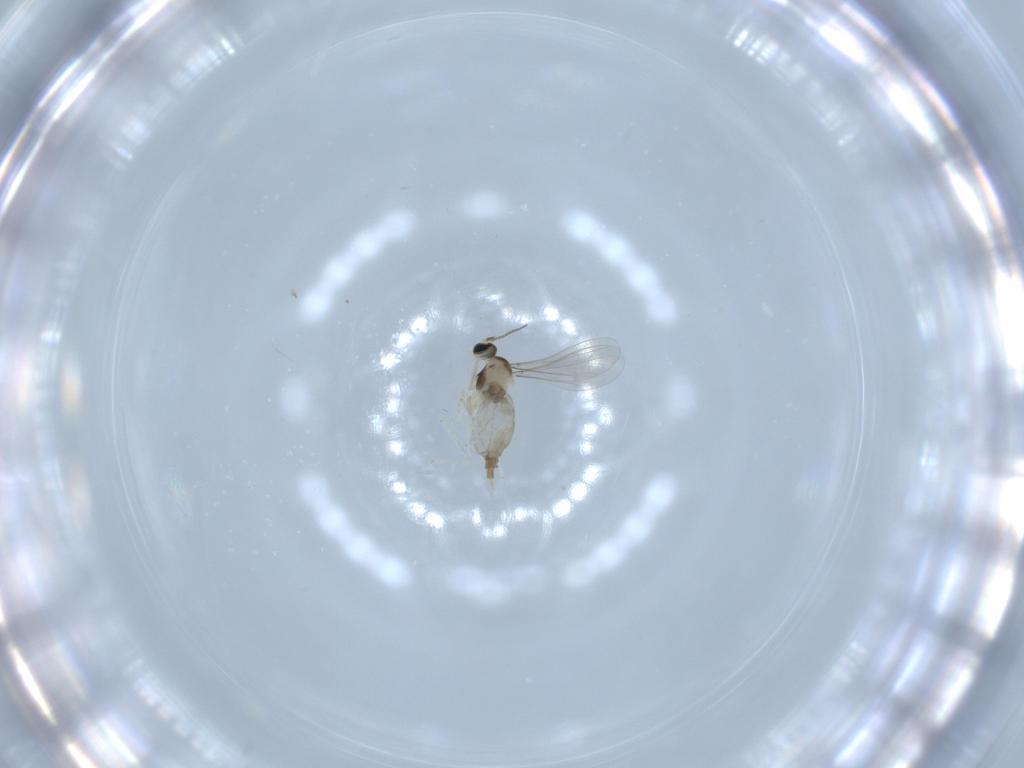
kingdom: Animalia
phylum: Arthropoda
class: Insecta
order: Diptera
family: Cecidomyiidae
